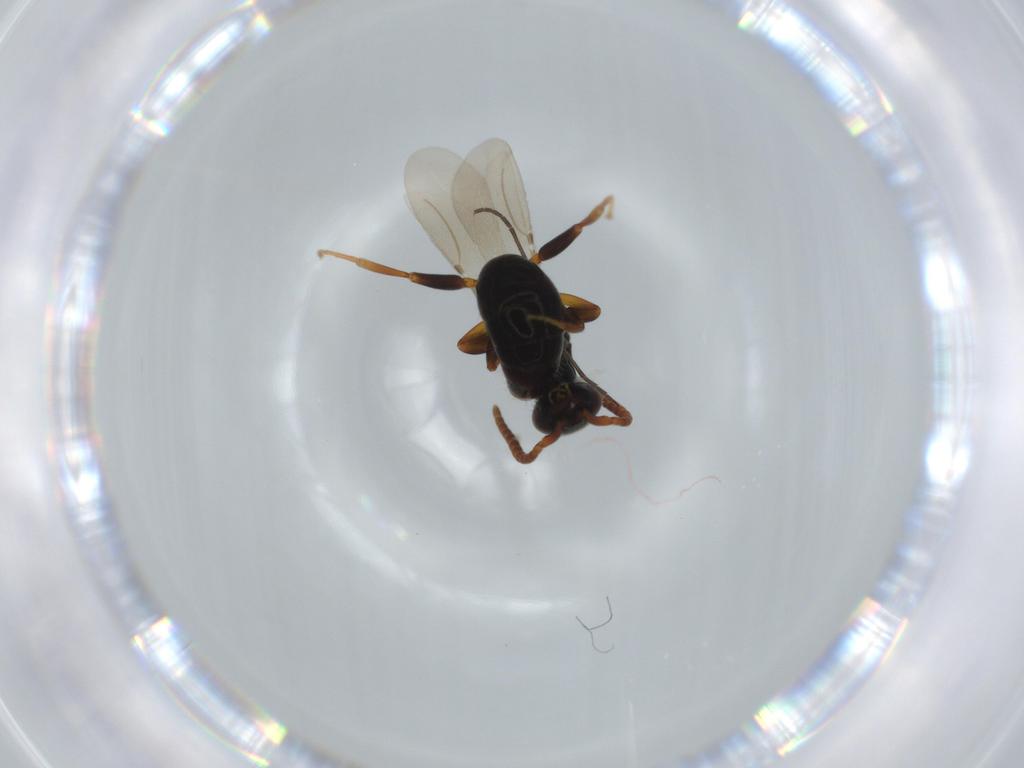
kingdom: Animalia
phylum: Arthropoda
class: Insecta
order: Hymenoptera
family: Bethylidae
